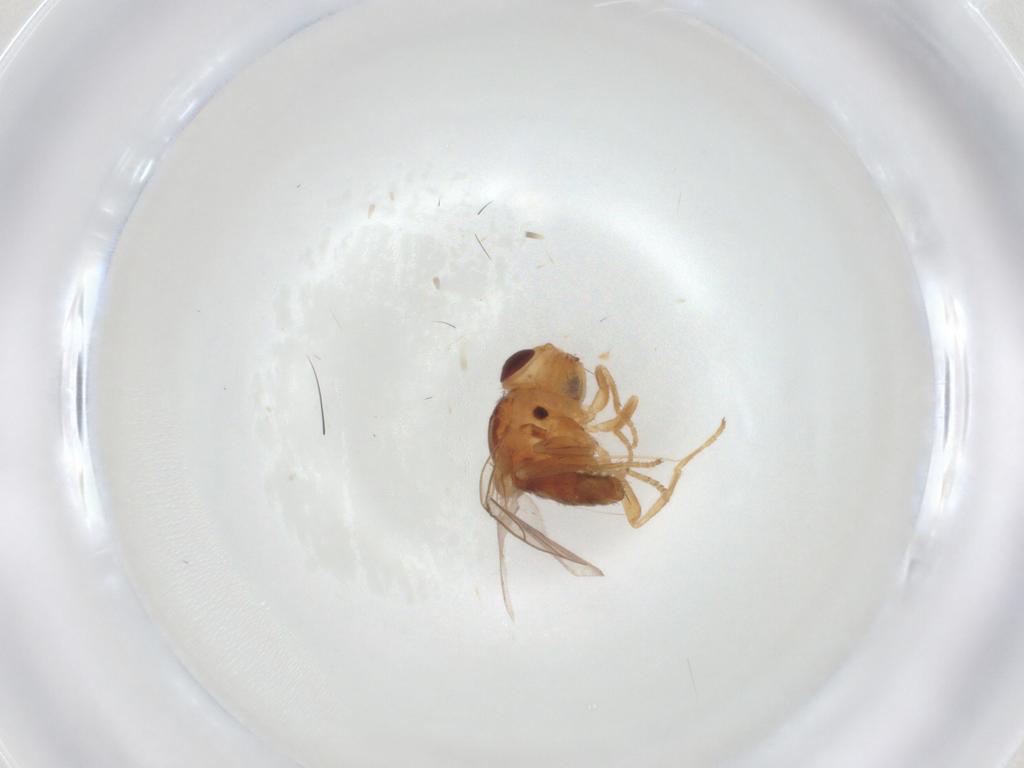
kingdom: Animalia
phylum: Arthropoda
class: Insecta
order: Diptera
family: Chloropidae
